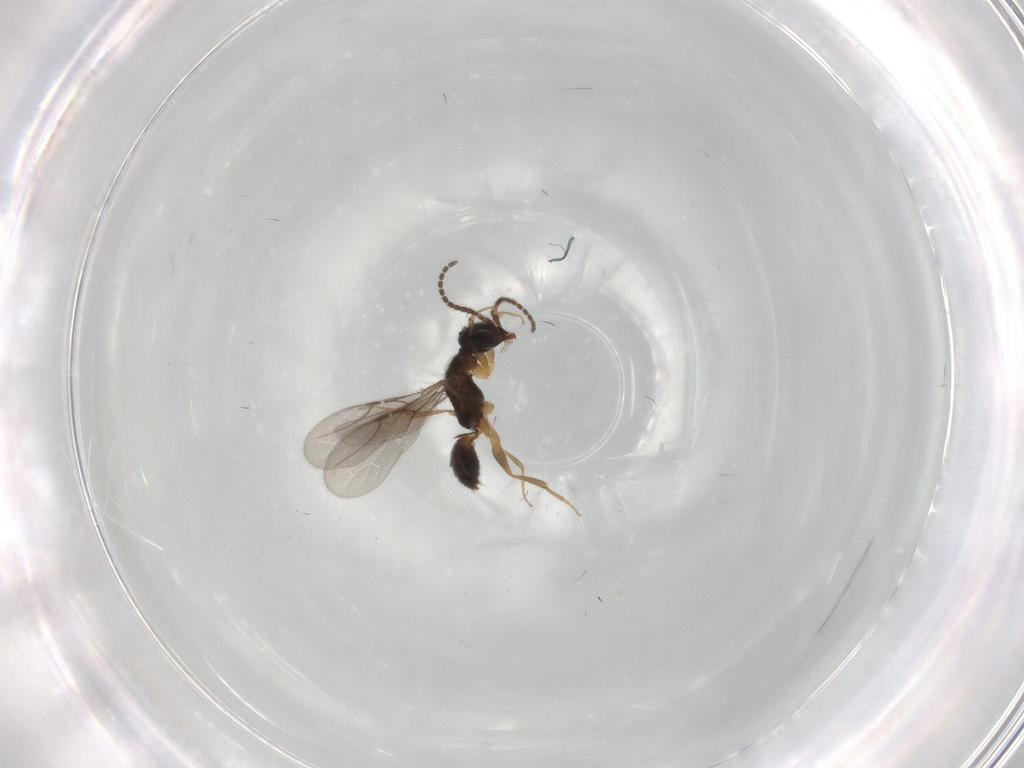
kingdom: Animalia
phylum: Arthropoda
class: Insecta
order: Hymenoptera
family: Bethylidae
